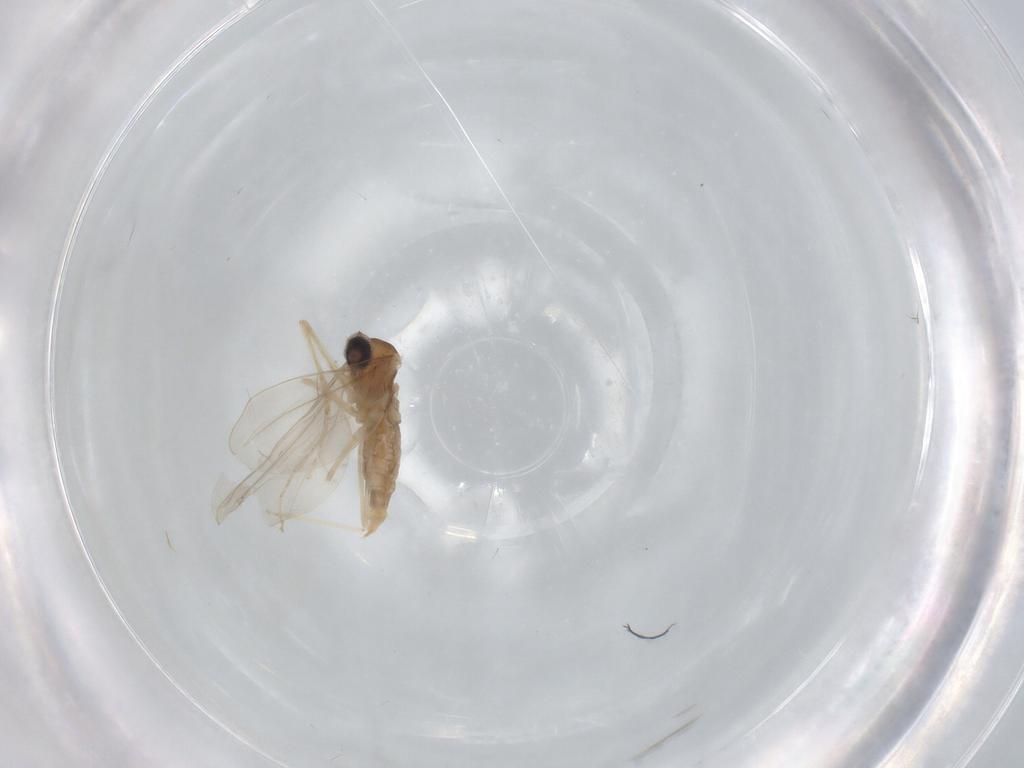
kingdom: Animalia
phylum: Arthropoda
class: Insecta
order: Diptera
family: Cecidomyiidae
